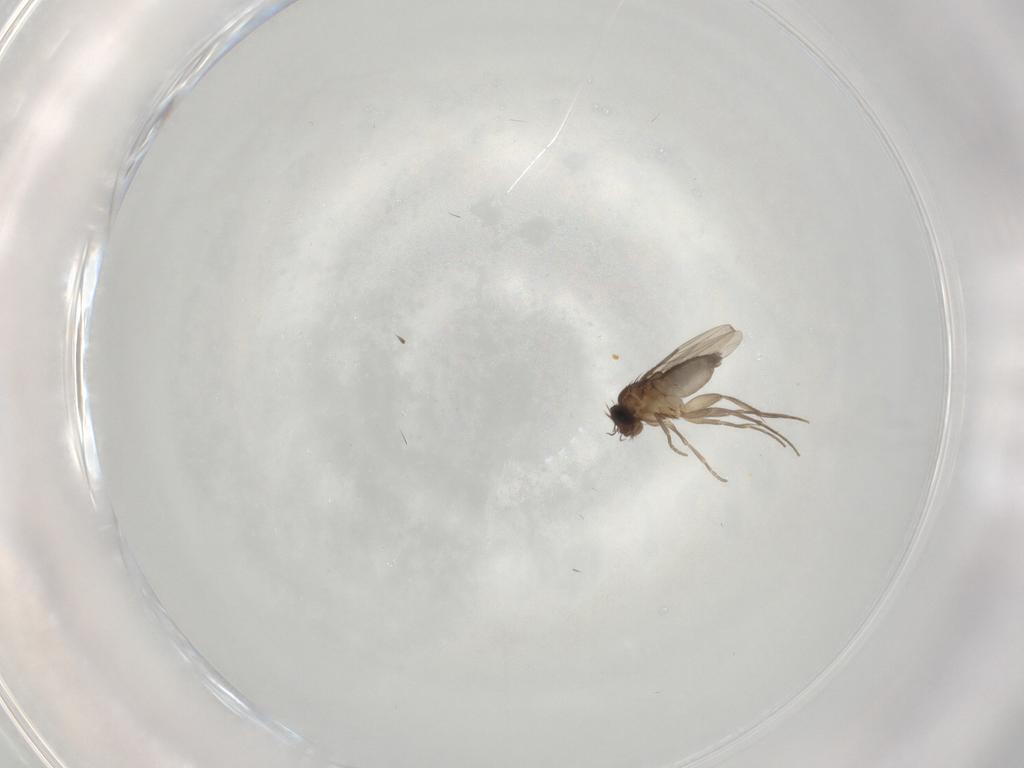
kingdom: Animalia
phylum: Arthropoda
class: Insecta
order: Diptera
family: Phoridae
